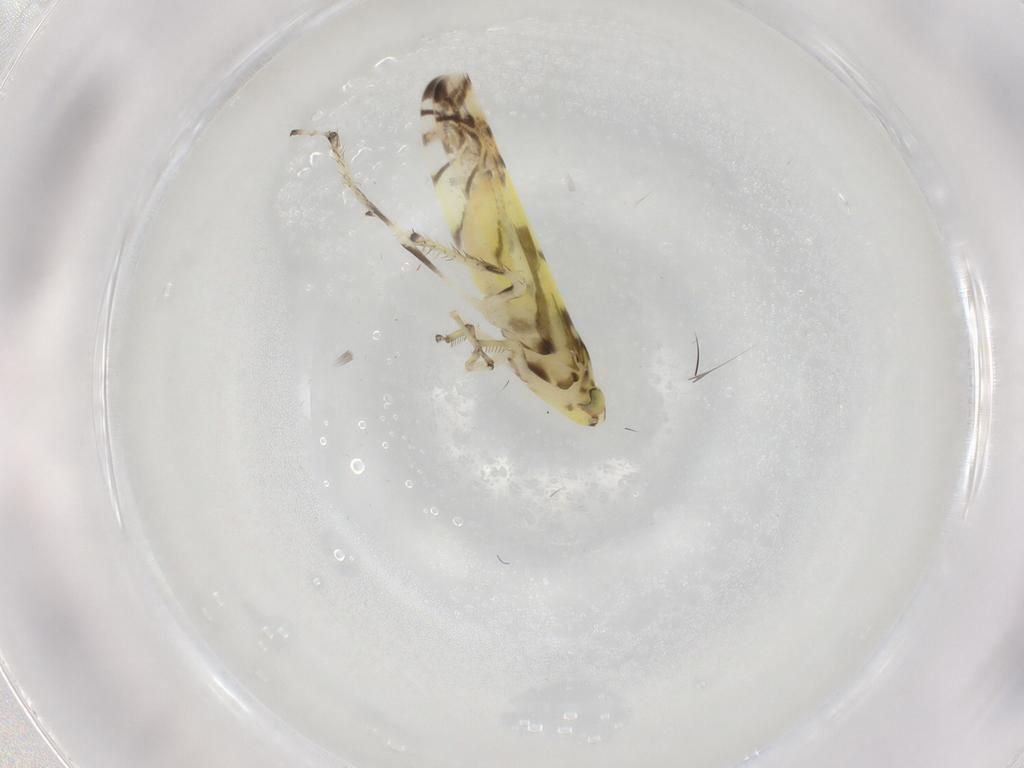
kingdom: Animalia
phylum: Arthropoda
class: Insecta
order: Hemiptera
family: Cicadellidae
